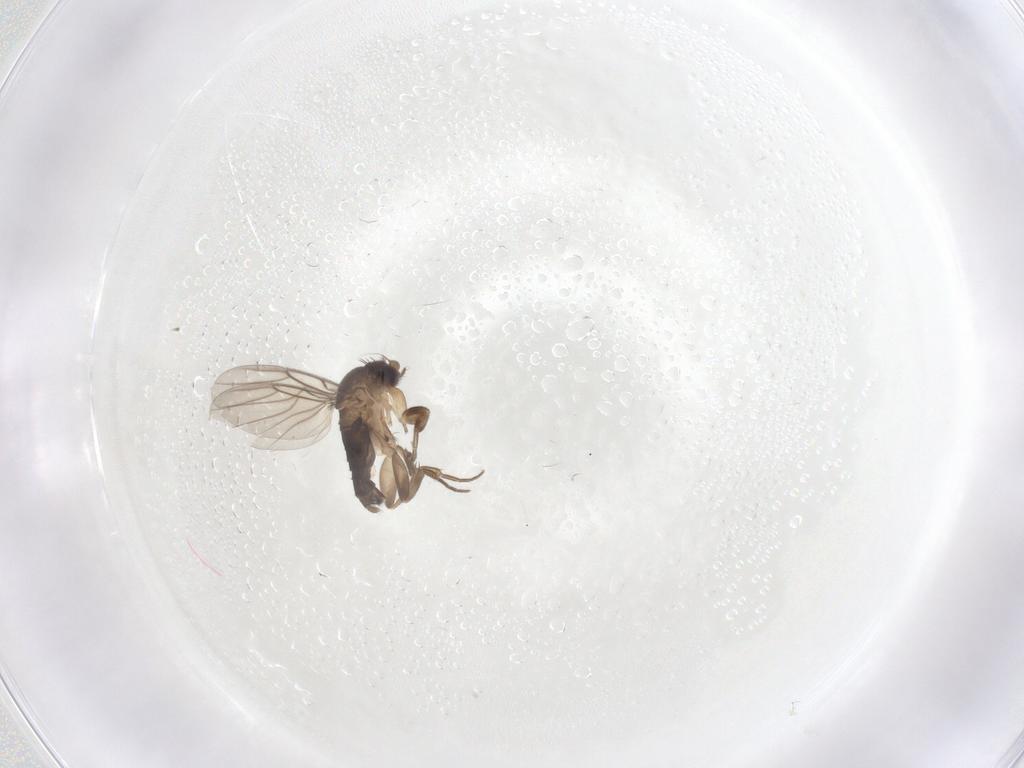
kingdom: Animalia
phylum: Arthropoda
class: Insecta
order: Diptera
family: Phoridae
